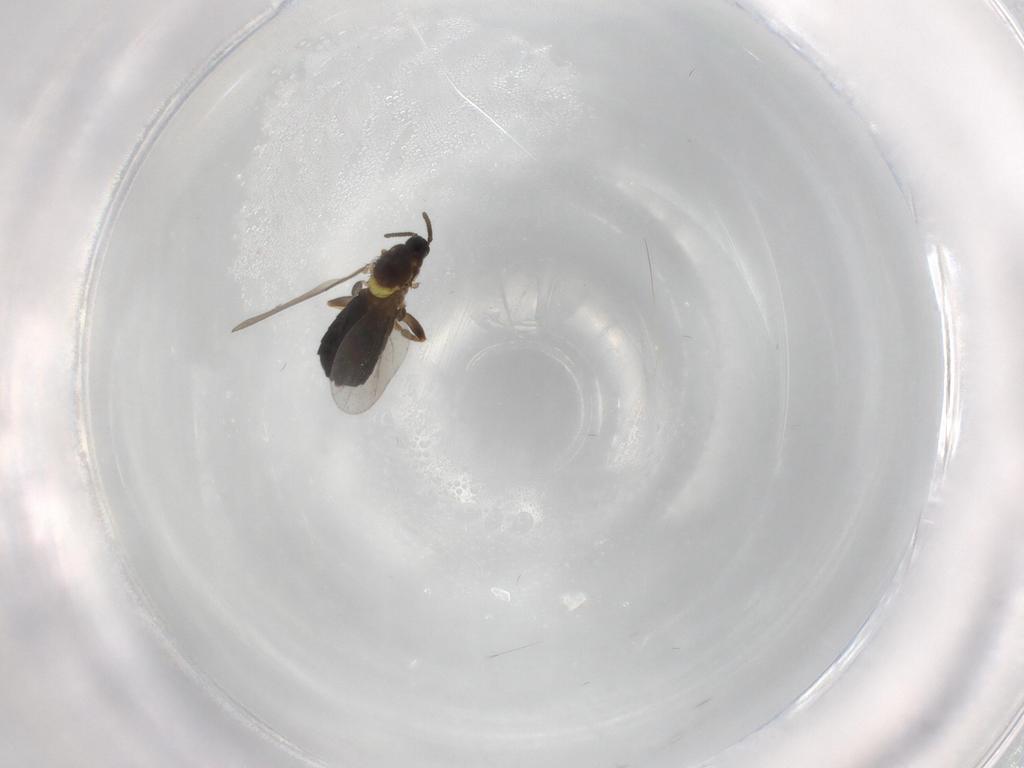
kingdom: Animalia
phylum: Arthropoda
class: Insecta
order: Diptera
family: Scatopsidae
